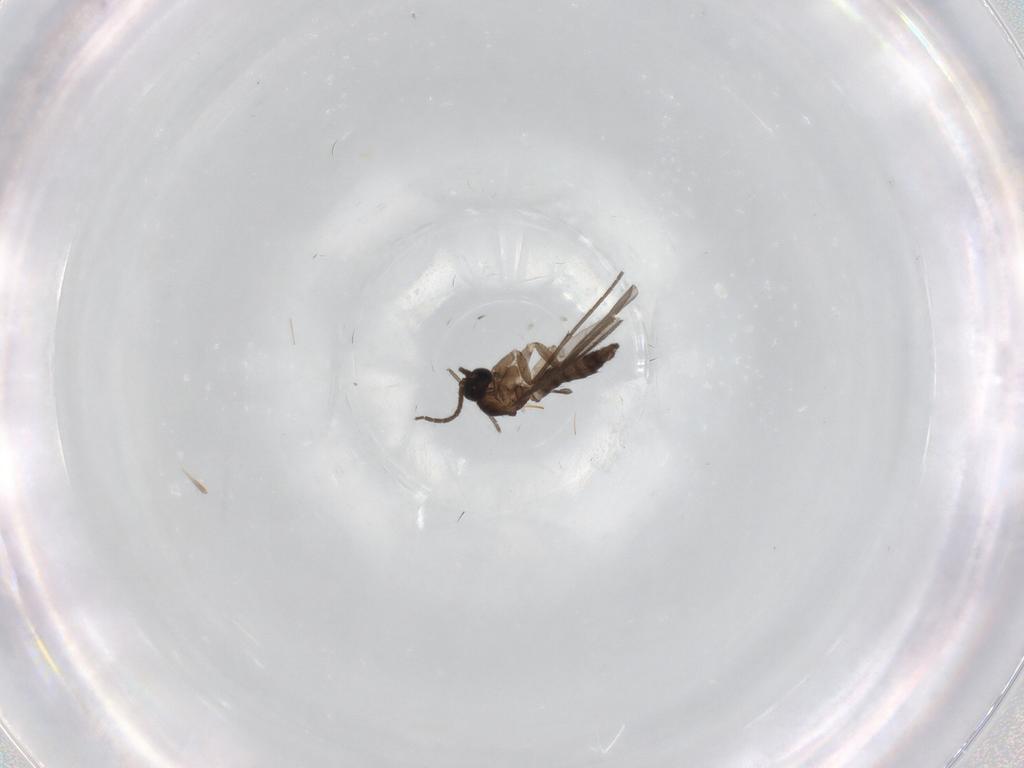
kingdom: Animalia
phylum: Arthropoda
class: Insecta
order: Diptera
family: Sciaridae
